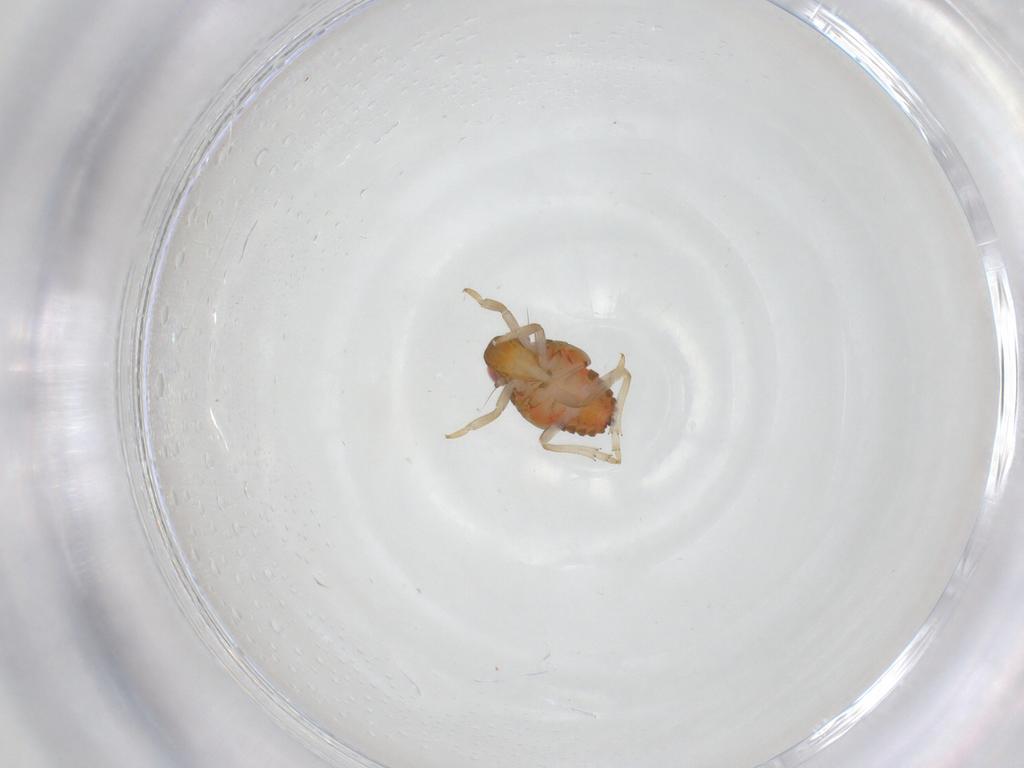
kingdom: Animalia
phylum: Arthropoda
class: Insecta
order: Hemiptera
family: Issidae
